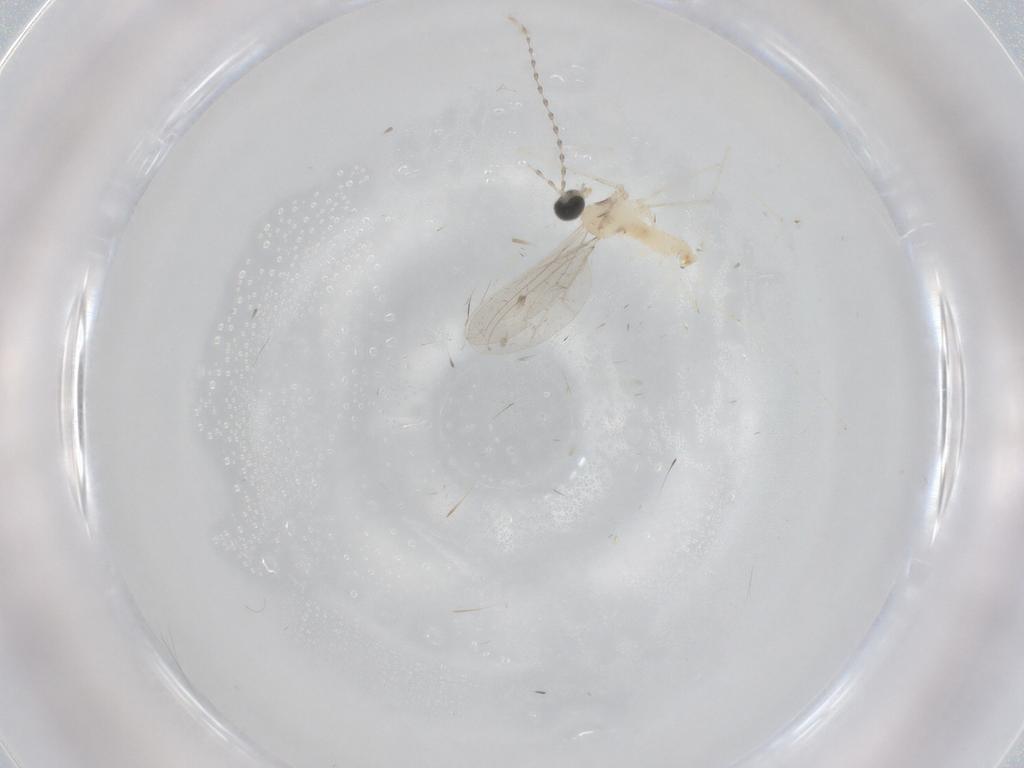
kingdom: Animalia
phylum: Arthropoda
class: Insecta
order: Diptera
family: Cecidomyiidae
